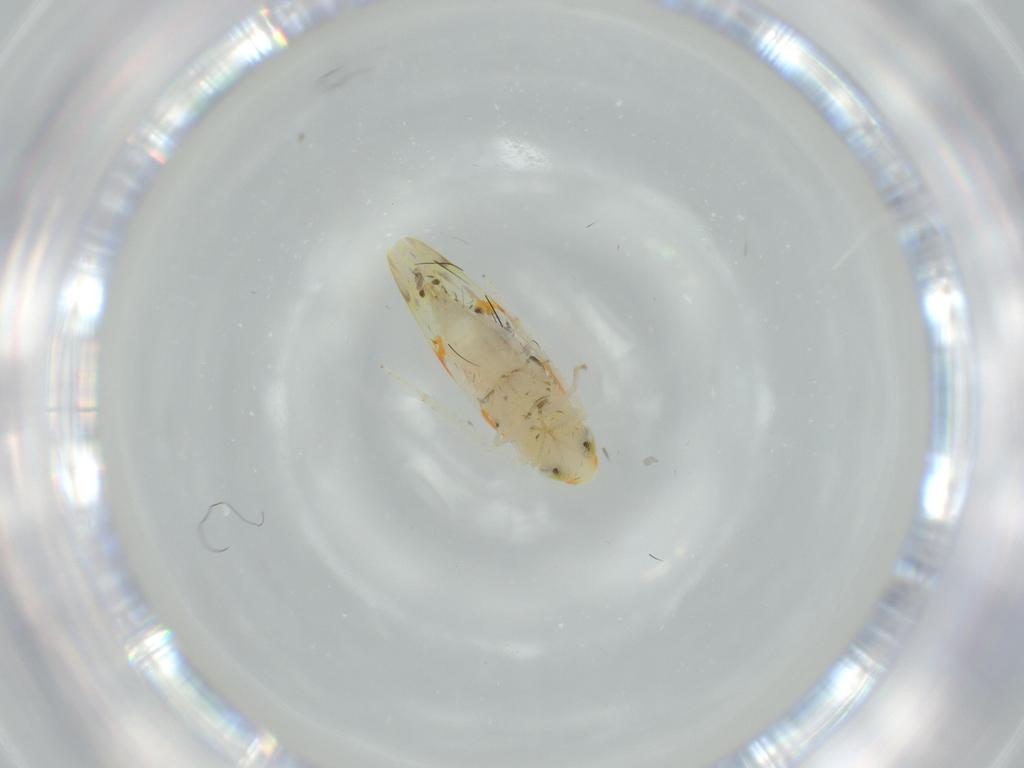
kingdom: Animalia
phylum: Arthropoda
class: Insecta
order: Hemiptera
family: Cicadellidae
